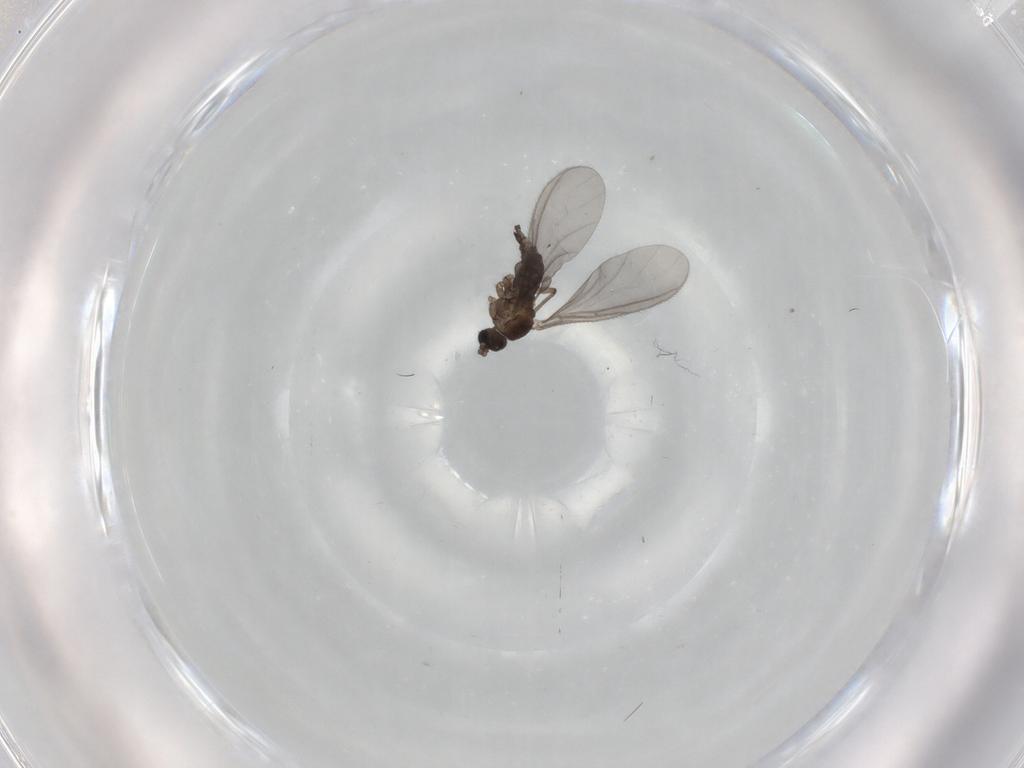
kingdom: Animalia
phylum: Arthropoda
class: Insecta
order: Diptera
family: Sciaridae
